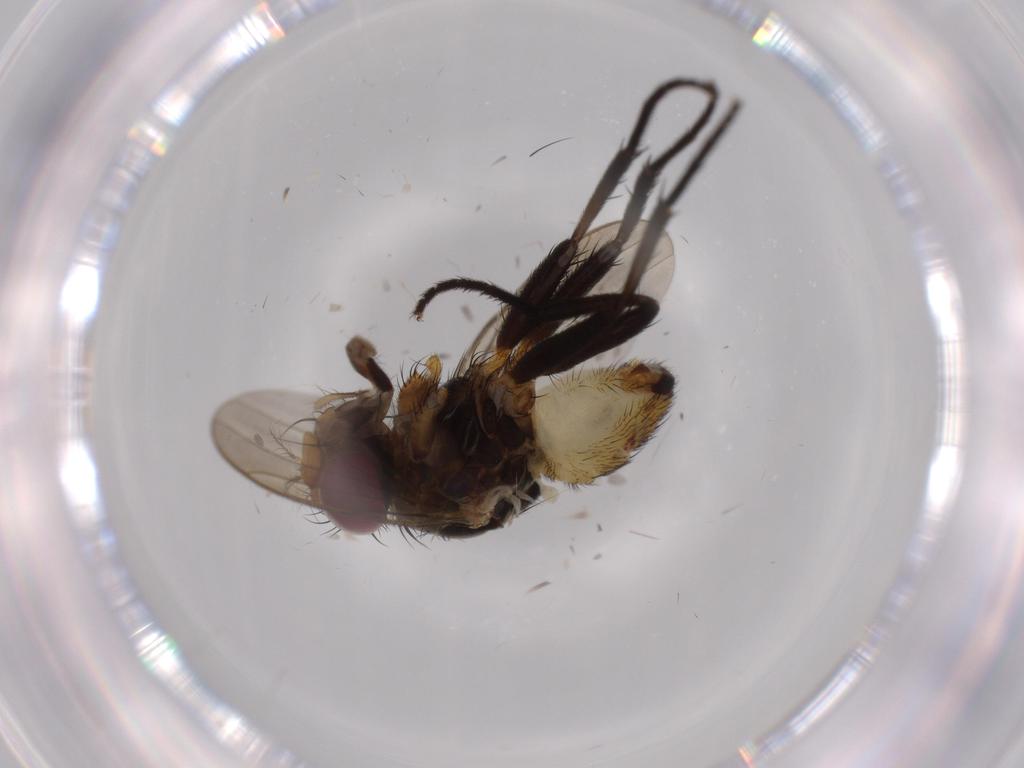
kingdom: Animalia
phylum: Arthropoda
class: Insecta
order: Diptera
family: Anthomyiidae
